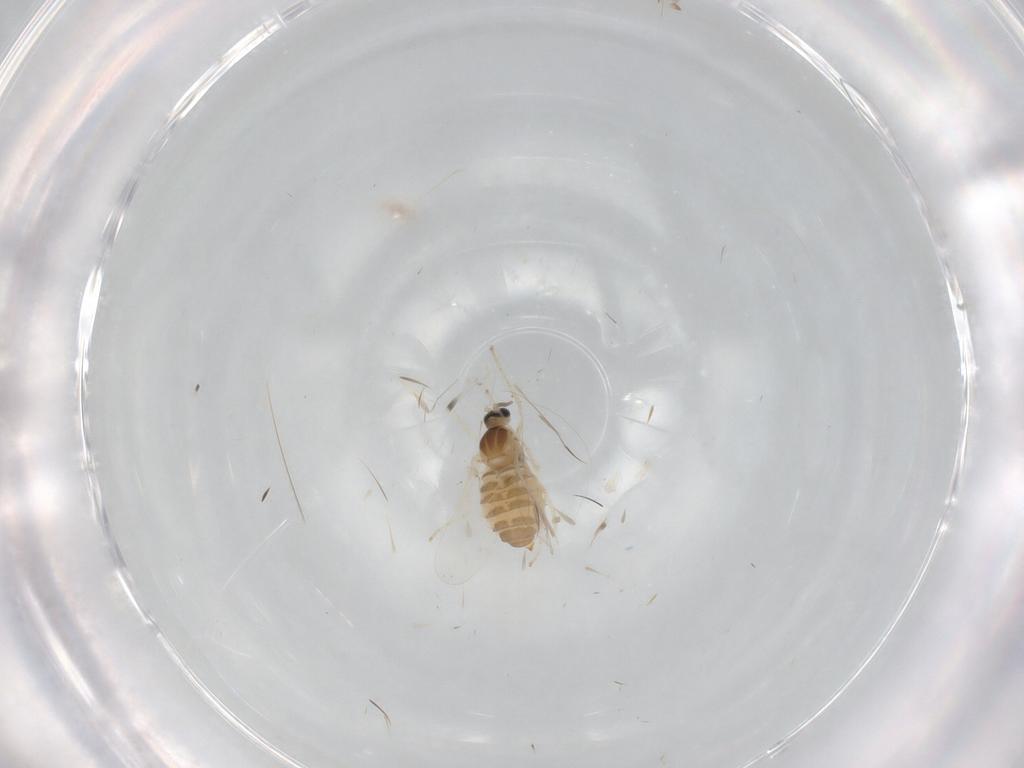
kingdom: Animalia
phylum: Arthropoda
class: Insecta
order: Diptera
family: Cecidomyiidae
